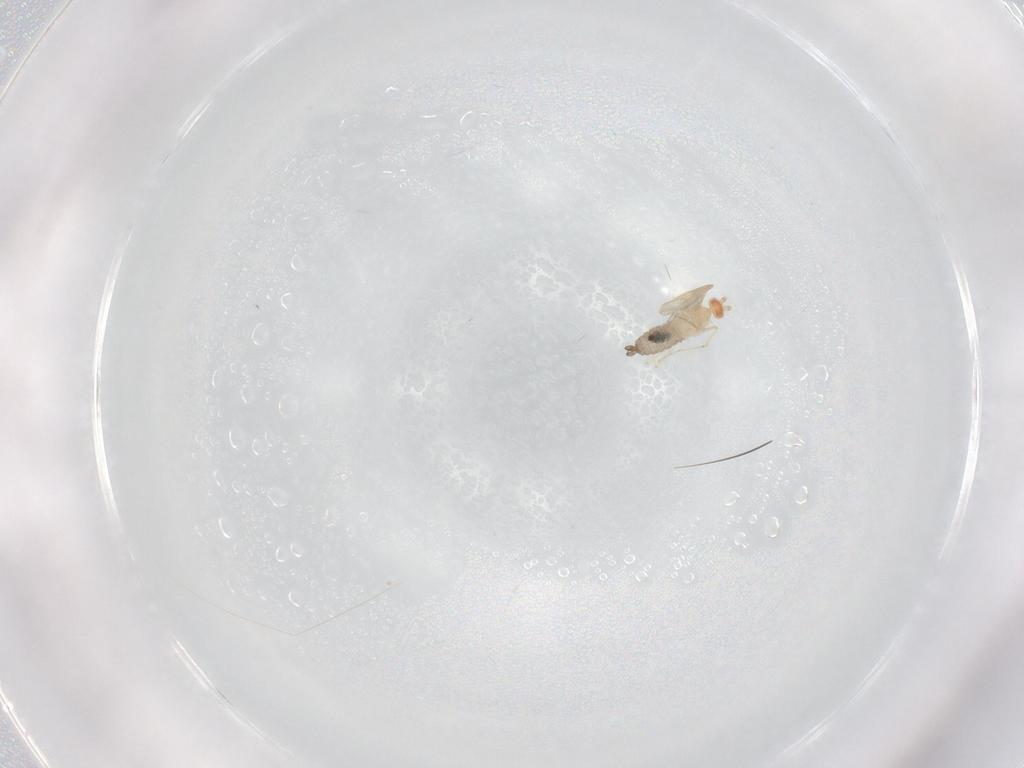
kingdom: Animalia
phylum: Arthropoda
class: Insecta
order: Diptera
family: Cecidomyiidae
